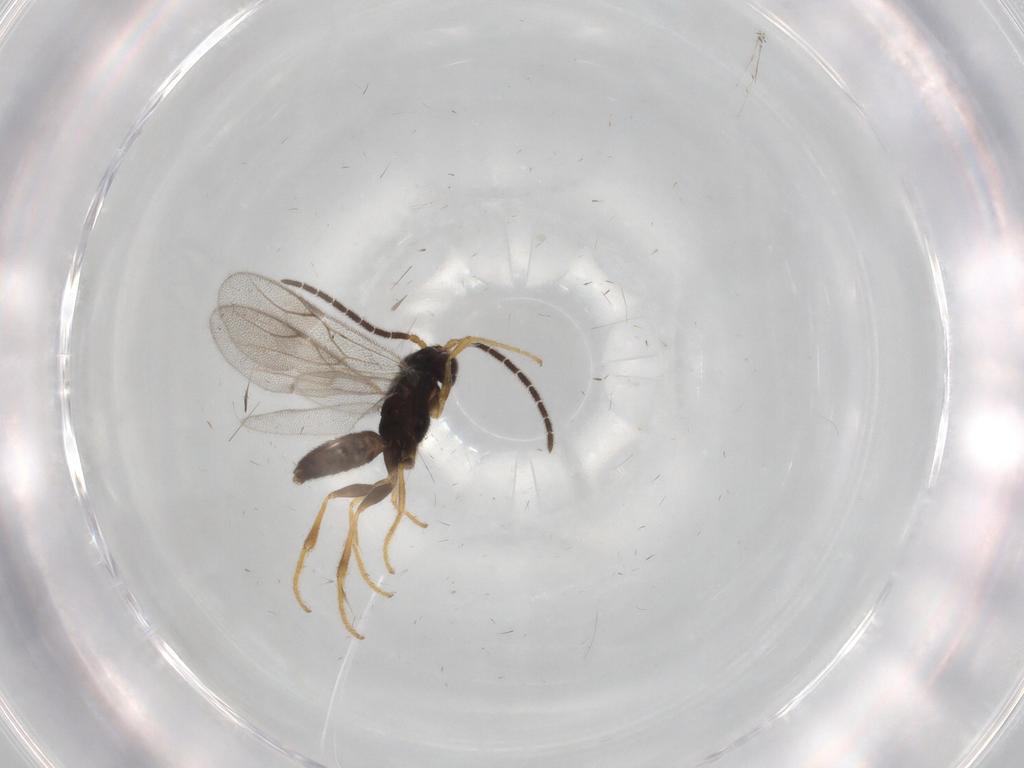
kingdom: Animalia
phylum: Arthropoda
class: Insecta
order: Hymenoptera
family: Dryinidae
